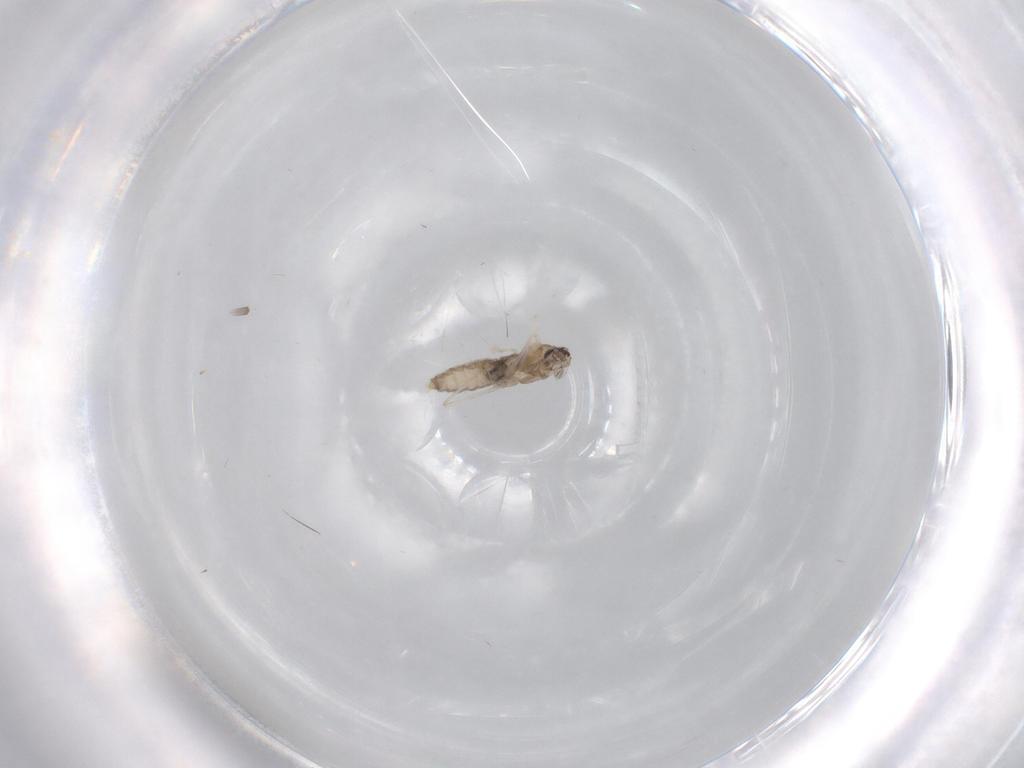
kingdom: Animalia
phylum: Arthropoda
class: Insecta
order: Diptera
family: Cecidomyiidae
